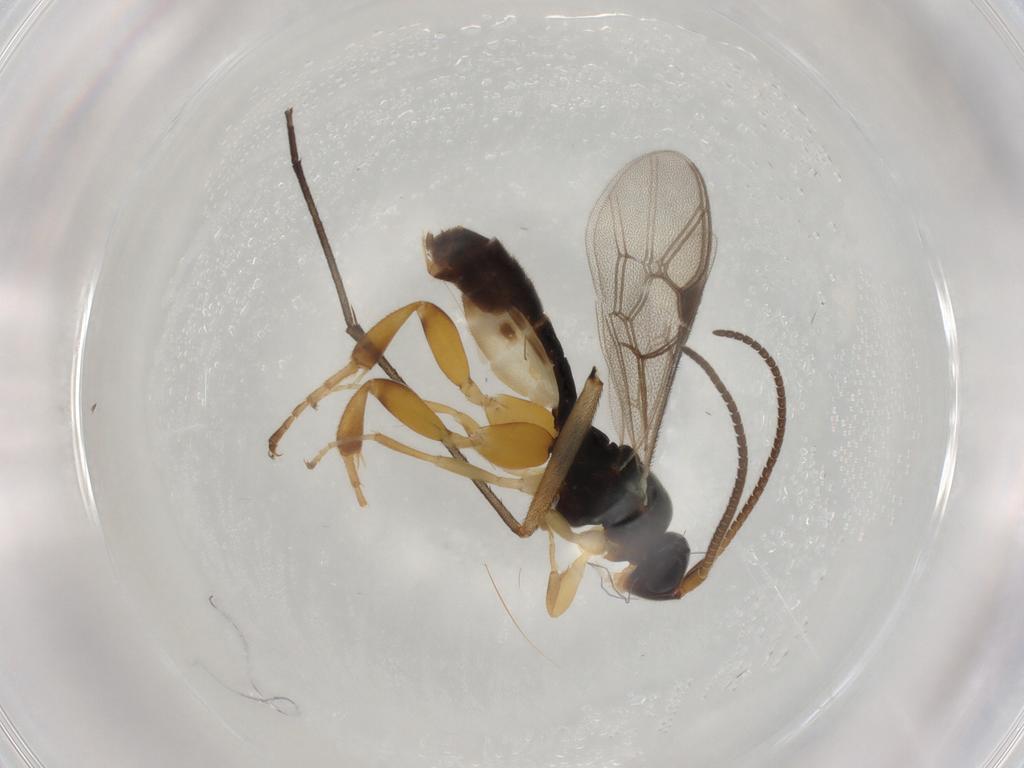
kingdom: Animalia
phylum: Arthropoda
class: Insecta
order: Hymenoptera
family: Ichneumonidae
